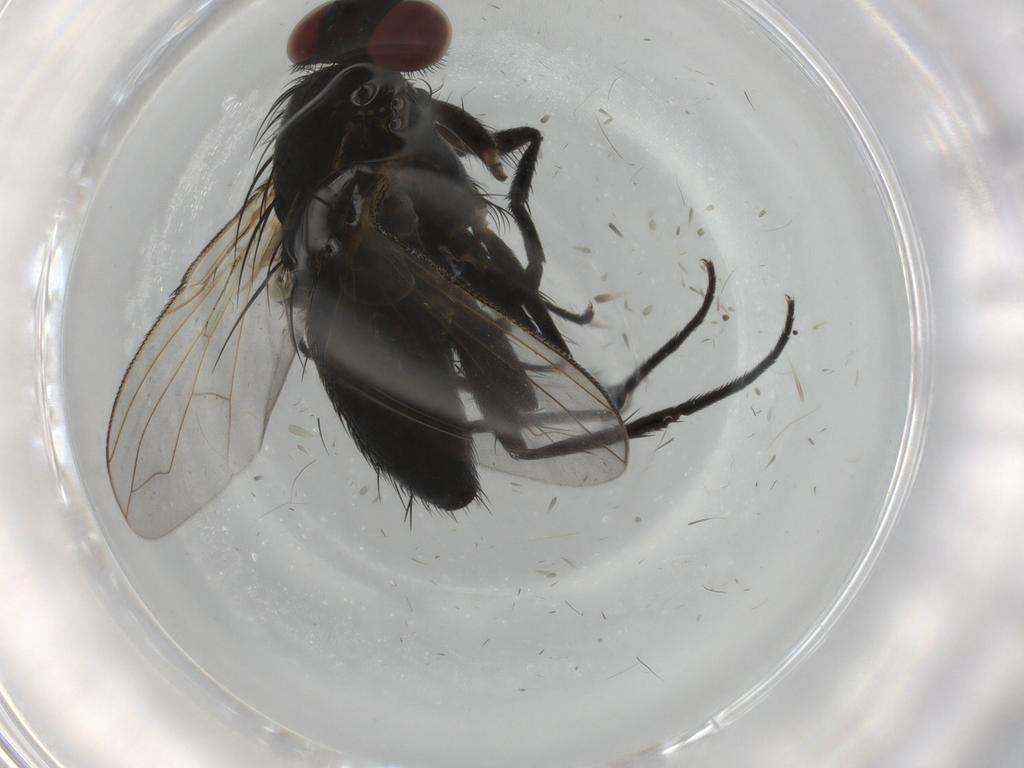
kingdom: Animalia
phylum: Arthropoda
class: Insecta
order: Diptera
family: Tachinidae
